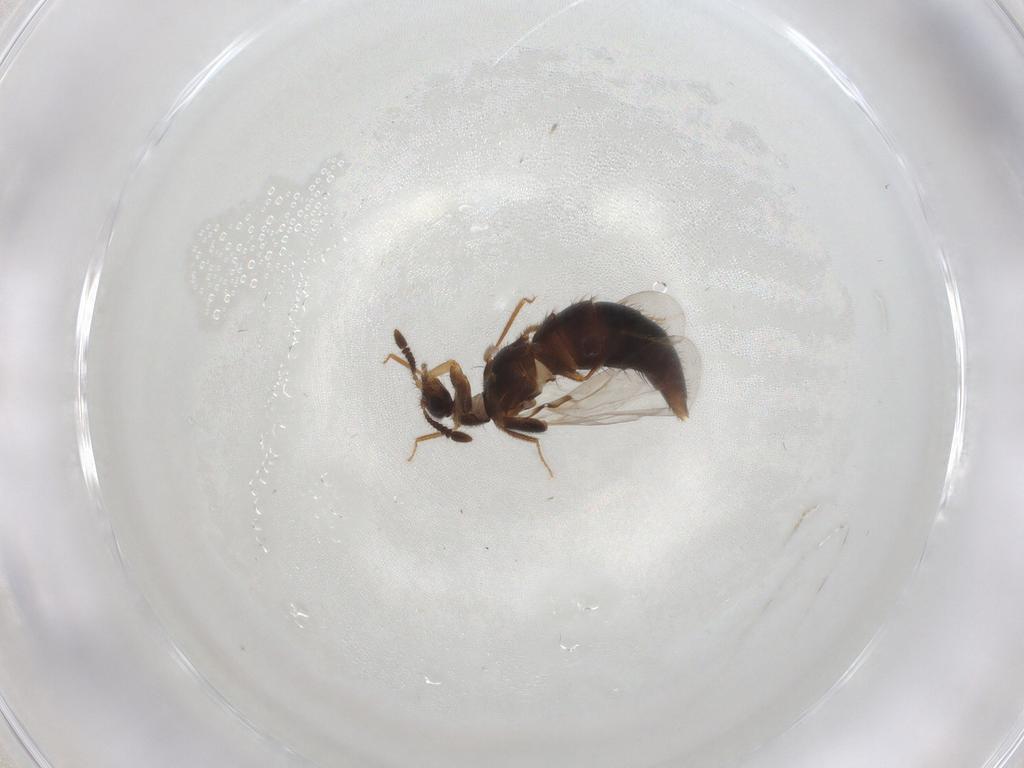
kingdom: Animalia
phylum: Arthropoda
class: Insecta
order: Coleoptera
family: Staphylinidae
